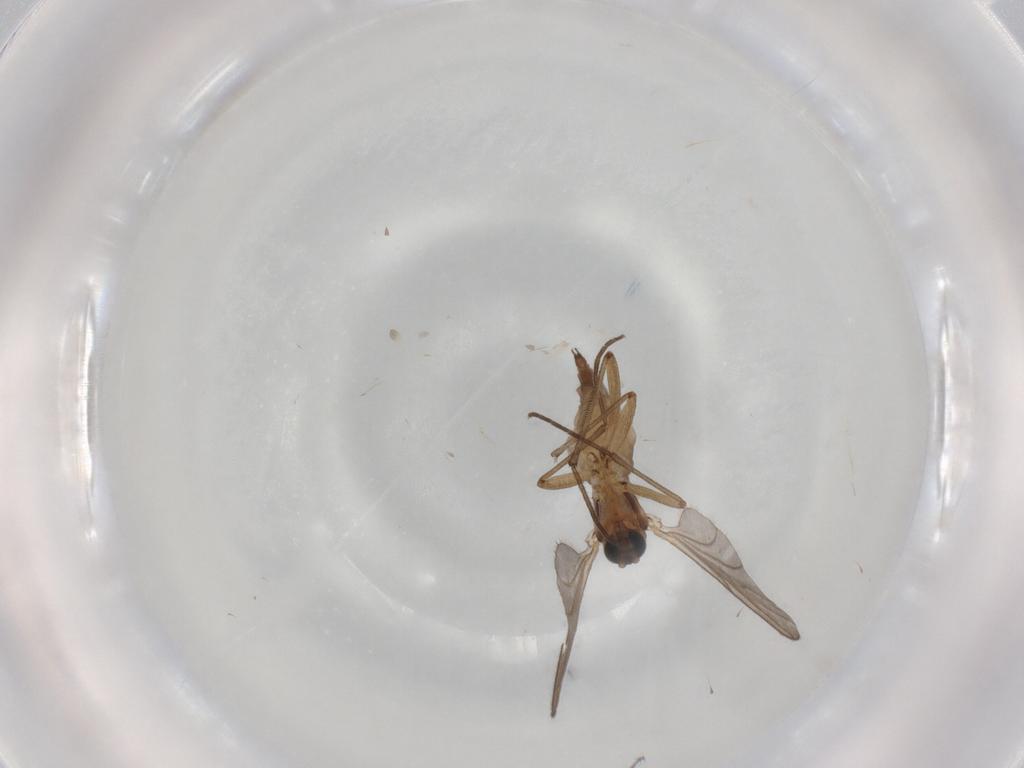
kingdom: Animalia
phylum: Arthropoda
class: Insecta
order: Diptera
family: Sciaridae
